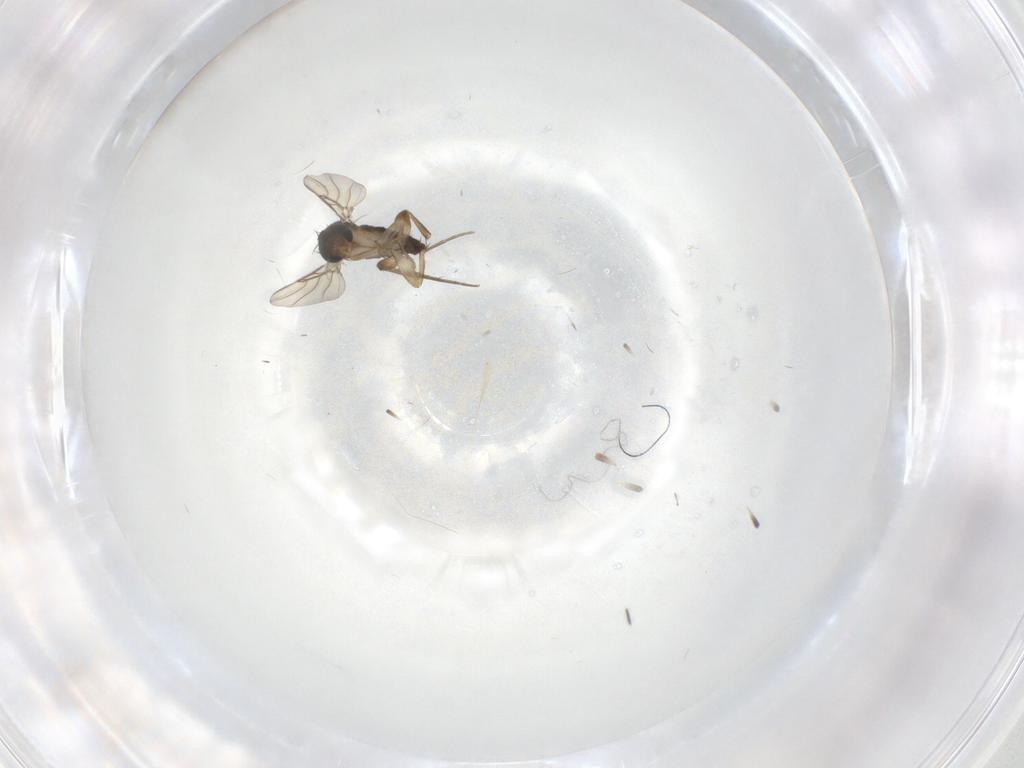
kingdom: Animalia
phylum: Arthropoda
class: Insecta
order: Diptera
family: Phoridae
